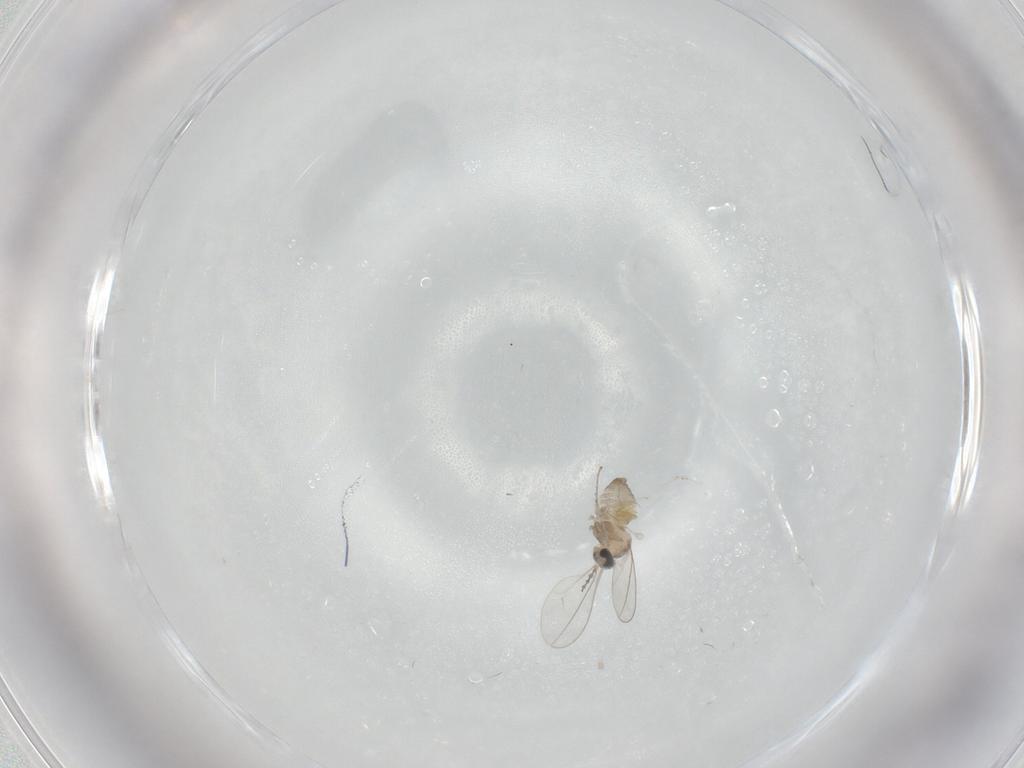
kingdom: Animalia
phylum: Arthropoda
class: Insecta
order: Diptera
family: Cecidomyiidae
